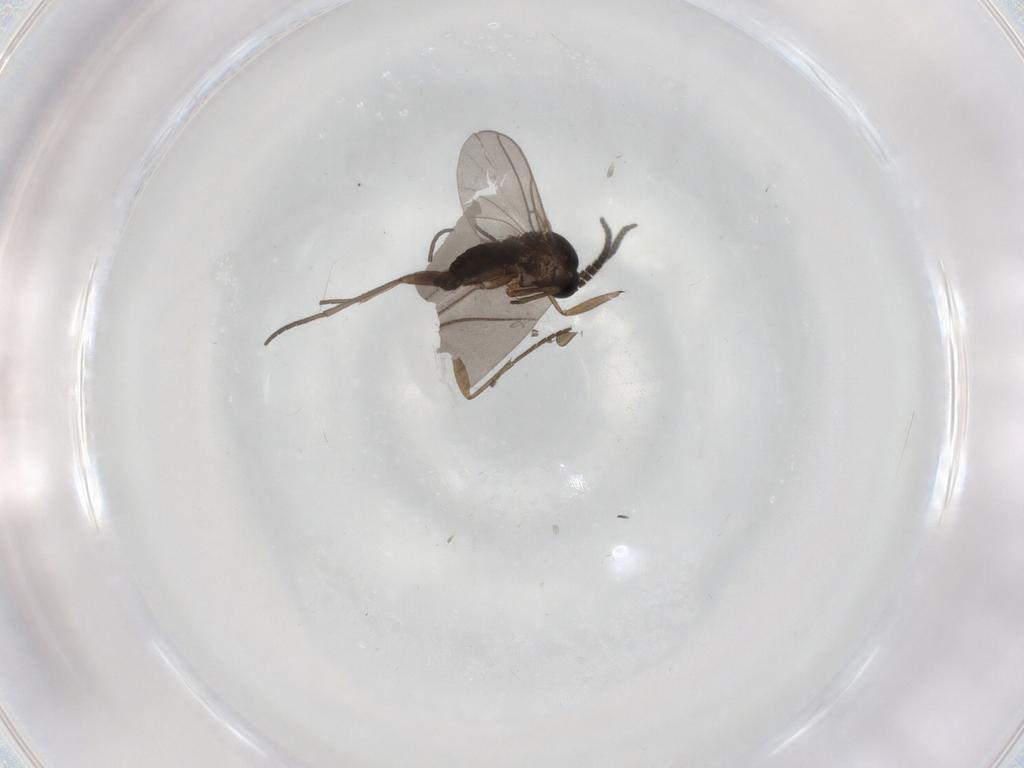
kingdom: Animalia
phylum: Arthropoda
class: Insecta
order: Diptera
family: Sciaridae
